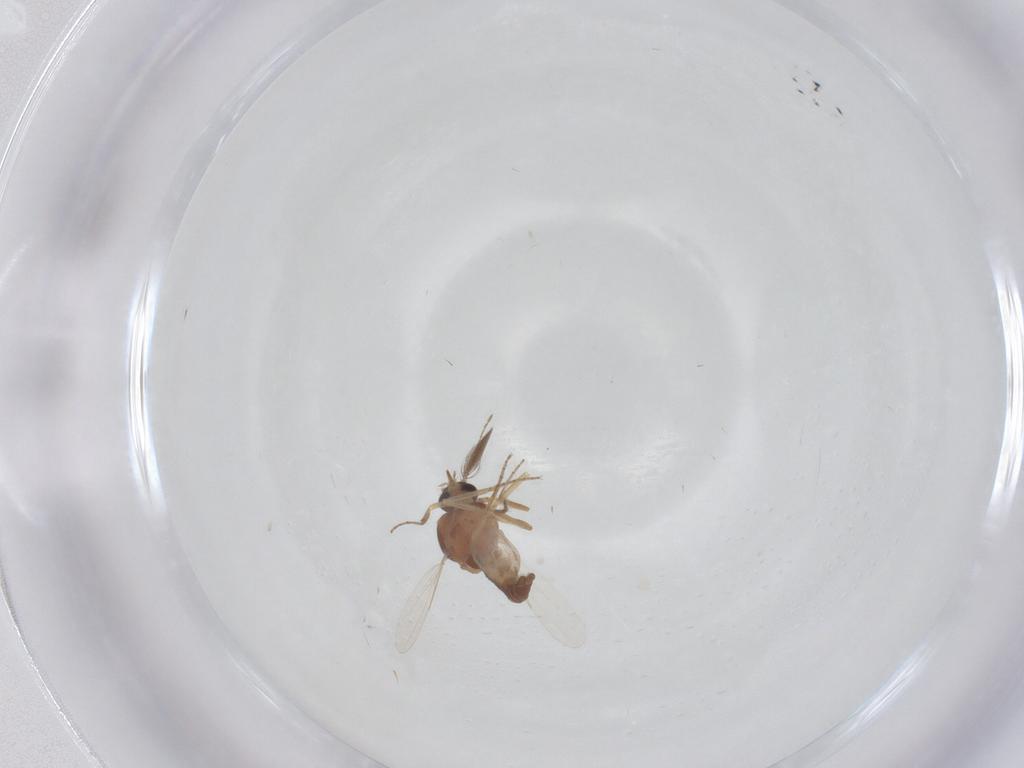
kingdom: Animalia
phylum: Arthropoda
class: Insecta
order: Diptera
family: Ceratopogonidae
